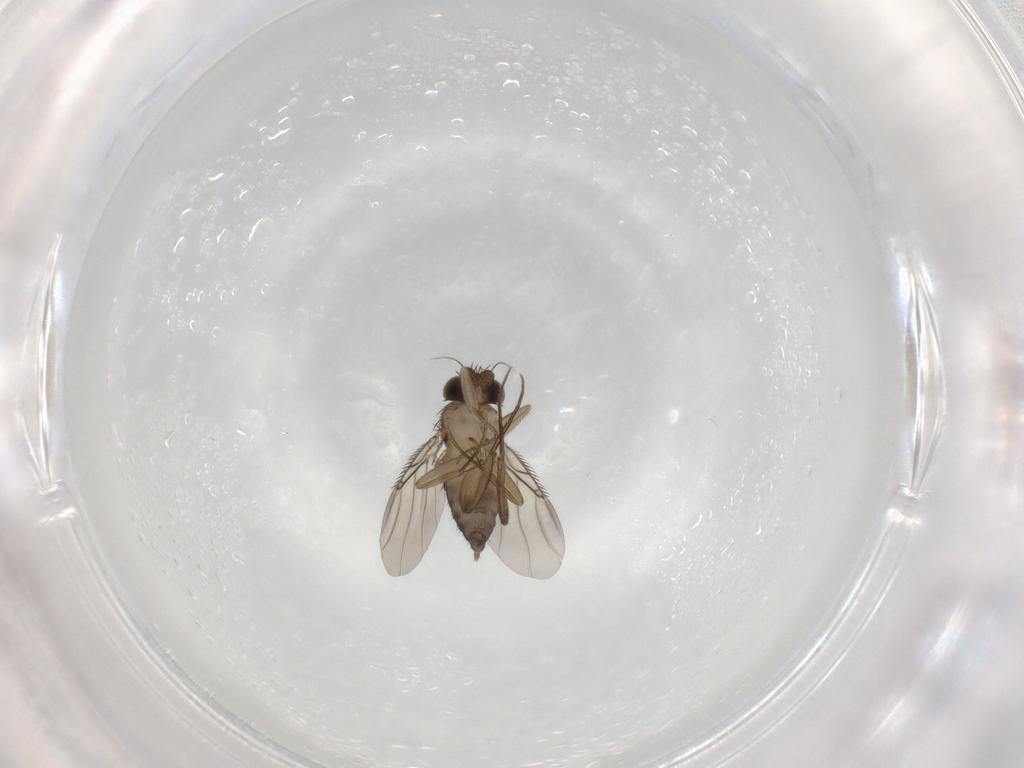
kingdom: Animalia
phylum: Arthropoda
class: Insecta
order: Diptera
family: Phoridae
